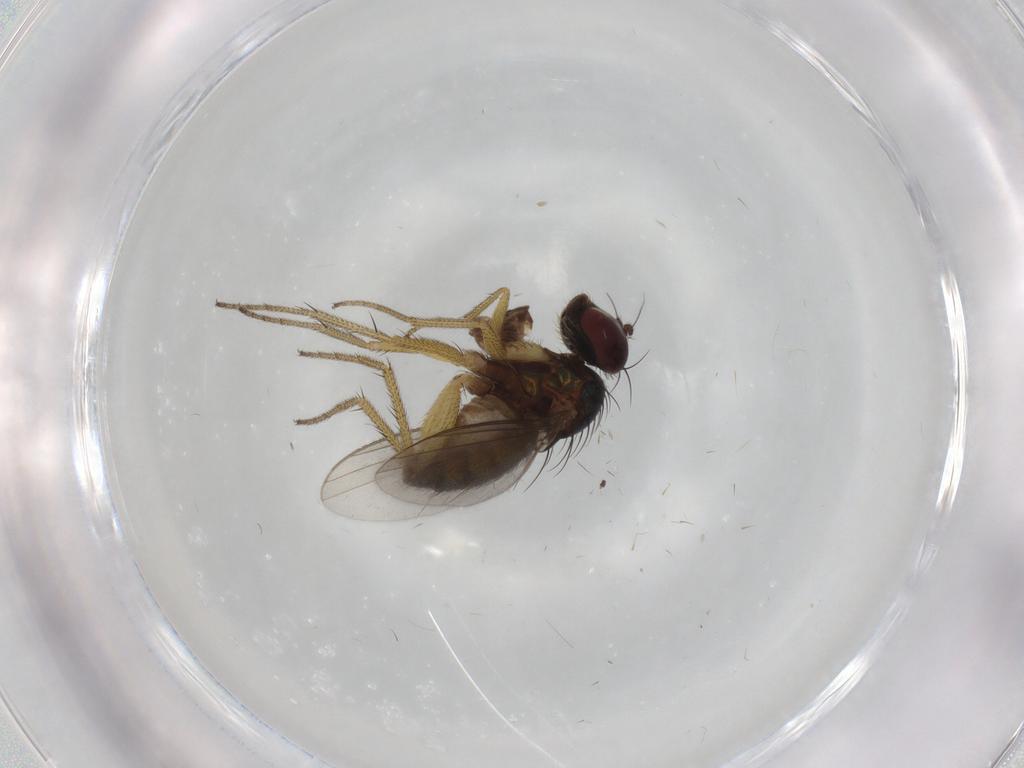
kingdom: Animalia
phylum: Arthropoda
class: Insecta
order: Diptera
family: Dolichopodidae
